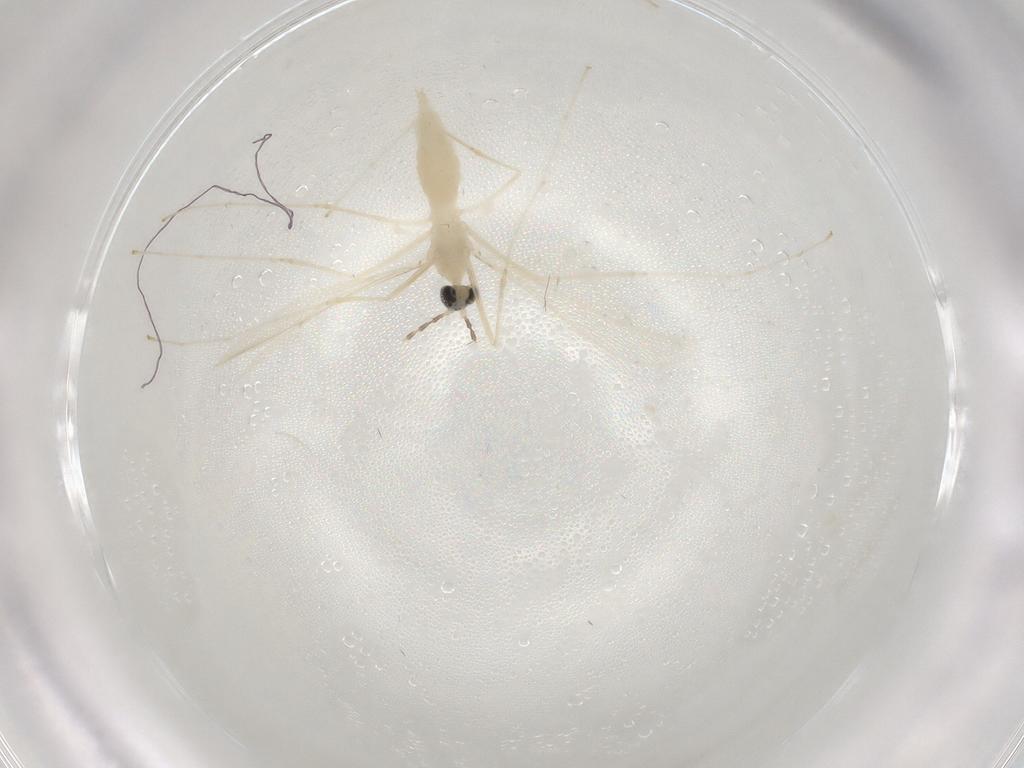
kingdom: Animalia
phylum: Arthropoda
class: Insecta
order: Diptera
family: Cecidomyiidae
